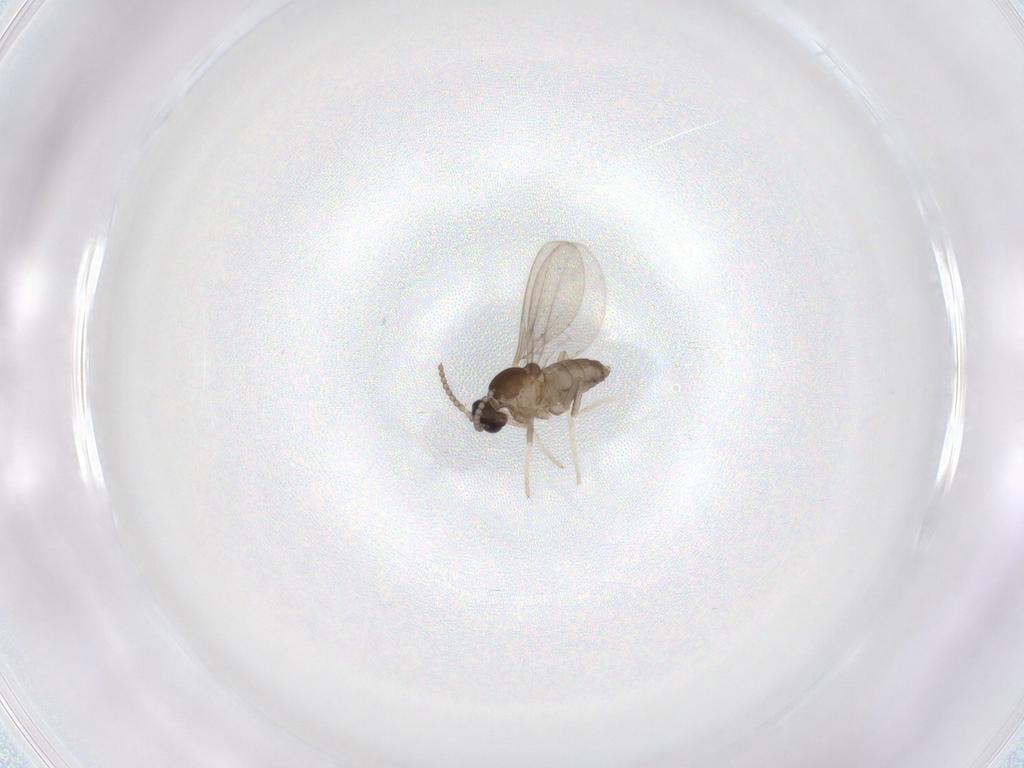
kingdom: Animalia
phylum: Arthropoda
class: Insecta
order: Diptera
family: Cecidomyiidae
